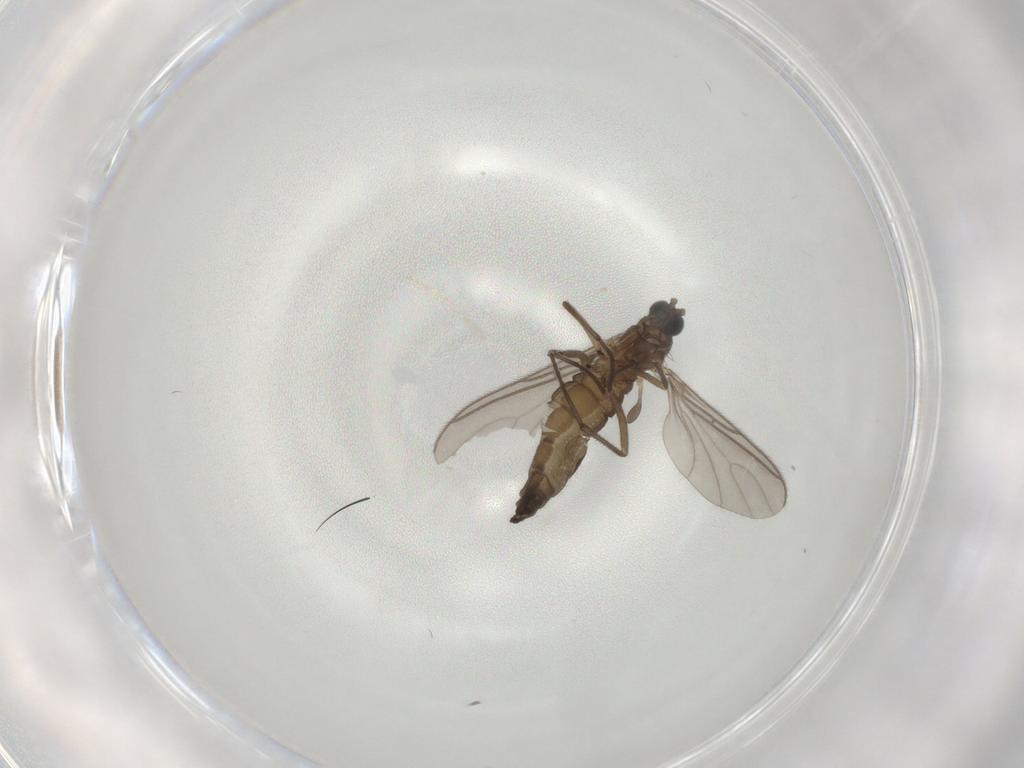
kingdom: Animalia
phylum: Arthropoda
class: Insecta
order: Diptera
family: Sciaridae
